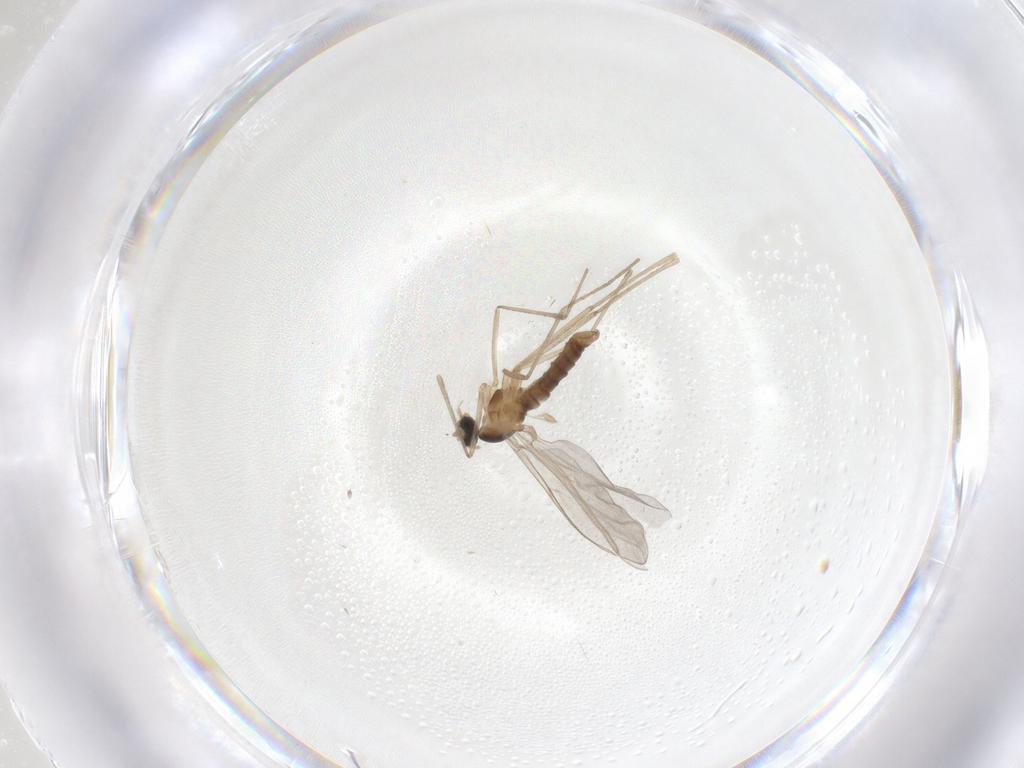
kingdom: Animalia
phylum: Arthropoda
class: Insecta
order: Diptera
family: Cecidomyiidae
